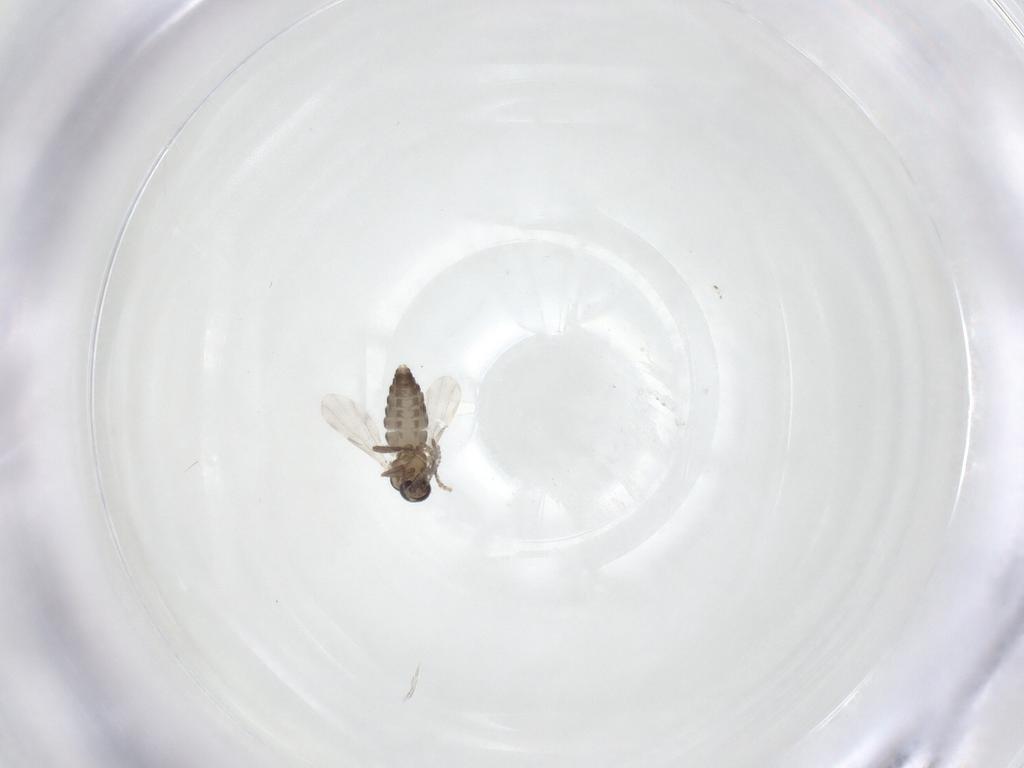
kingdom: Animalia
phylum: Arthropoda
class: Insecta
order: Diptera
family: Ceratopogonidae
